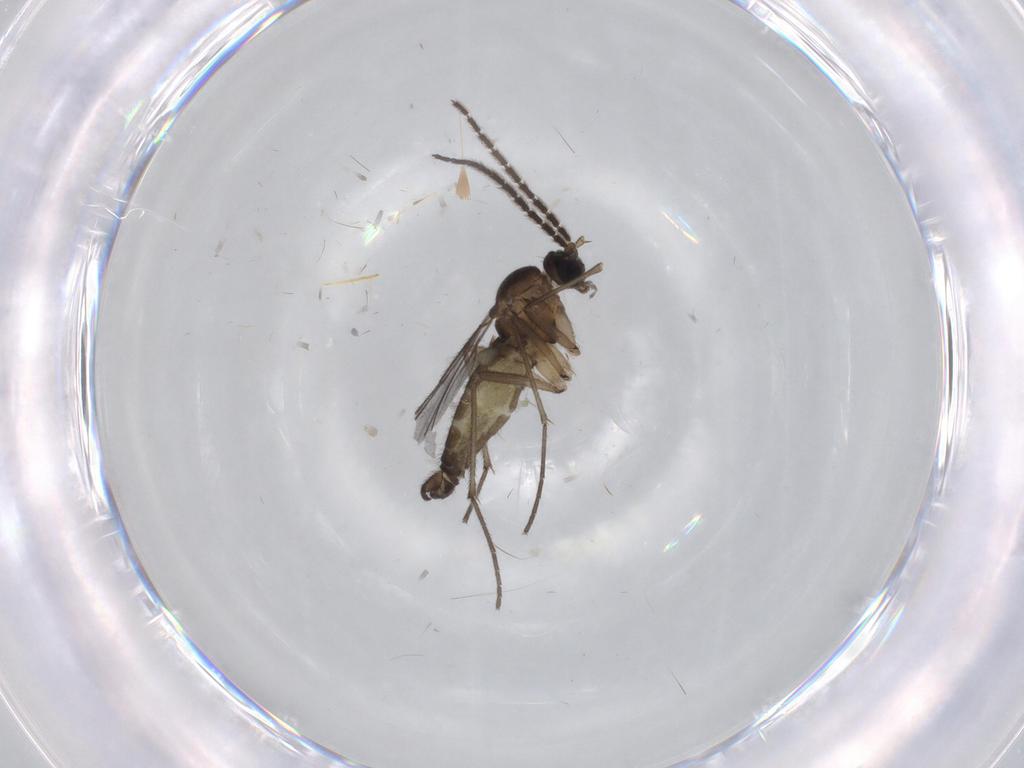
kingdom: Animalia
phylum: Arthropoda
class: Insecta
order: Diptera
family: Sciaridae
